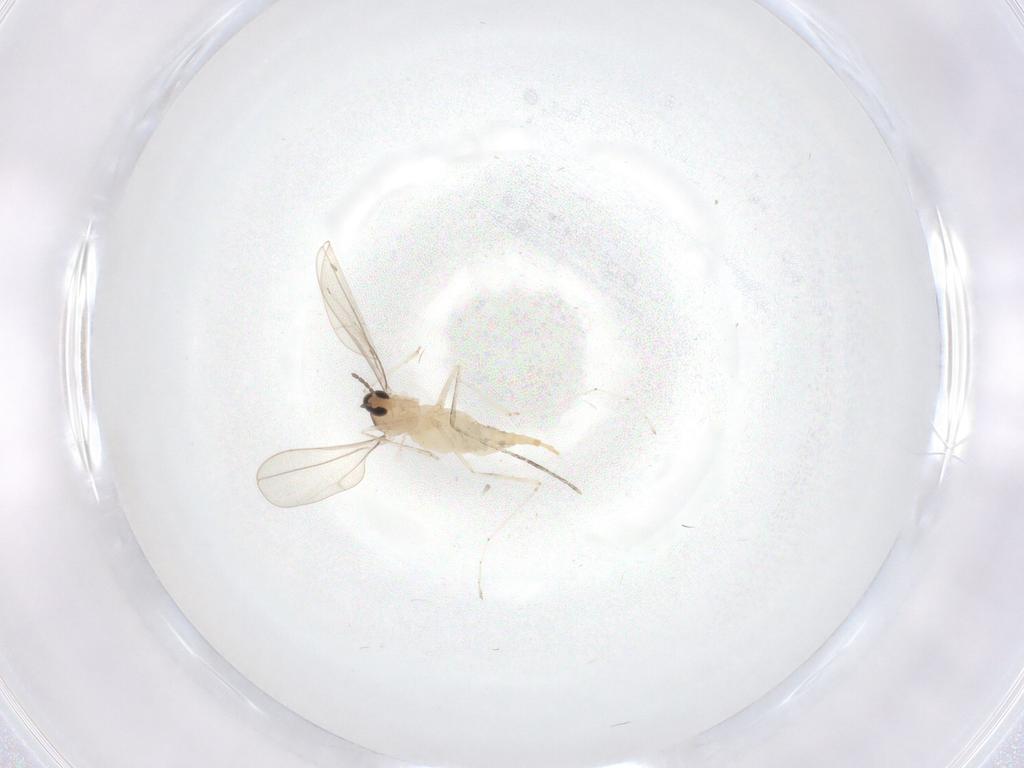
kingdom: Animalia
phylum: Arthropoda
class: Insecta
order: Diptera
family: Cecidomyiidae
